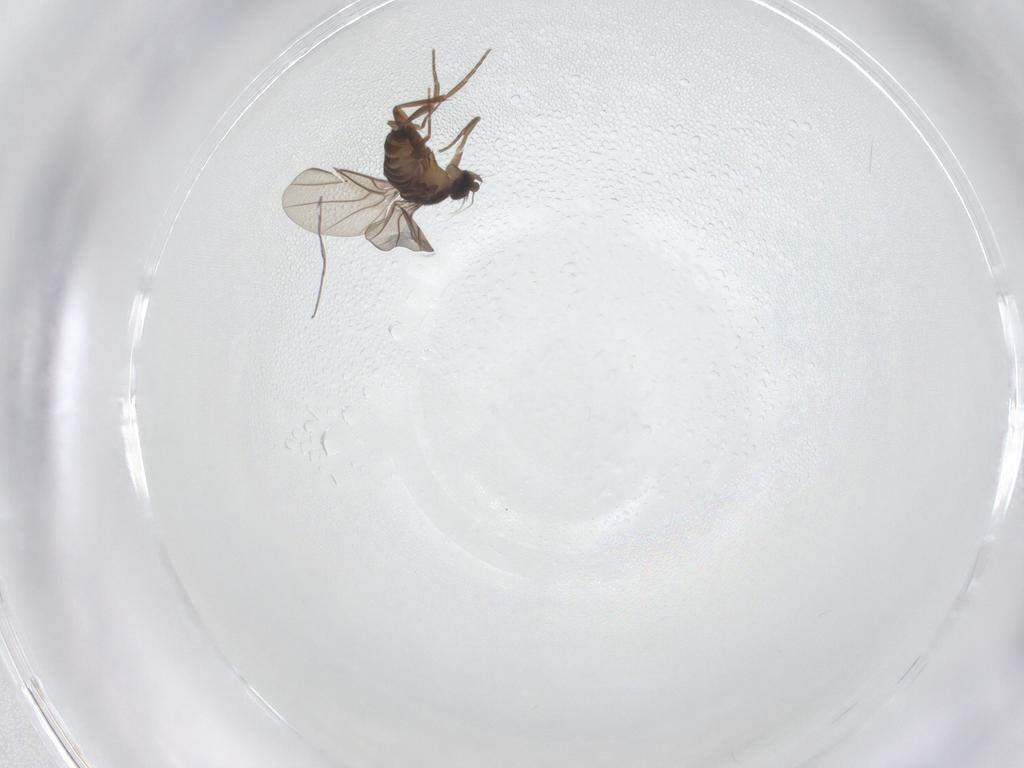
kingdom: Animalia
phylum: Arthropoda
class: Insecta
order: Diptera
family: Phoridae
